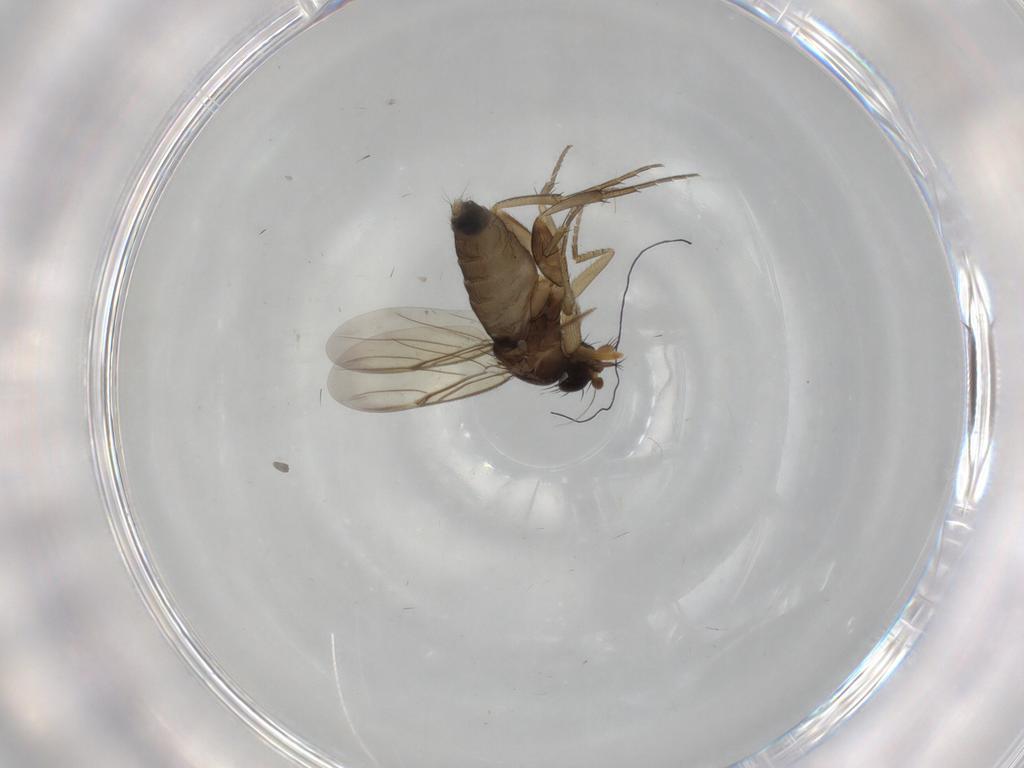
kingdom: Animalia
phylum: Arthropoda
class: Insecta
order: Diptera
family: Phoridae
